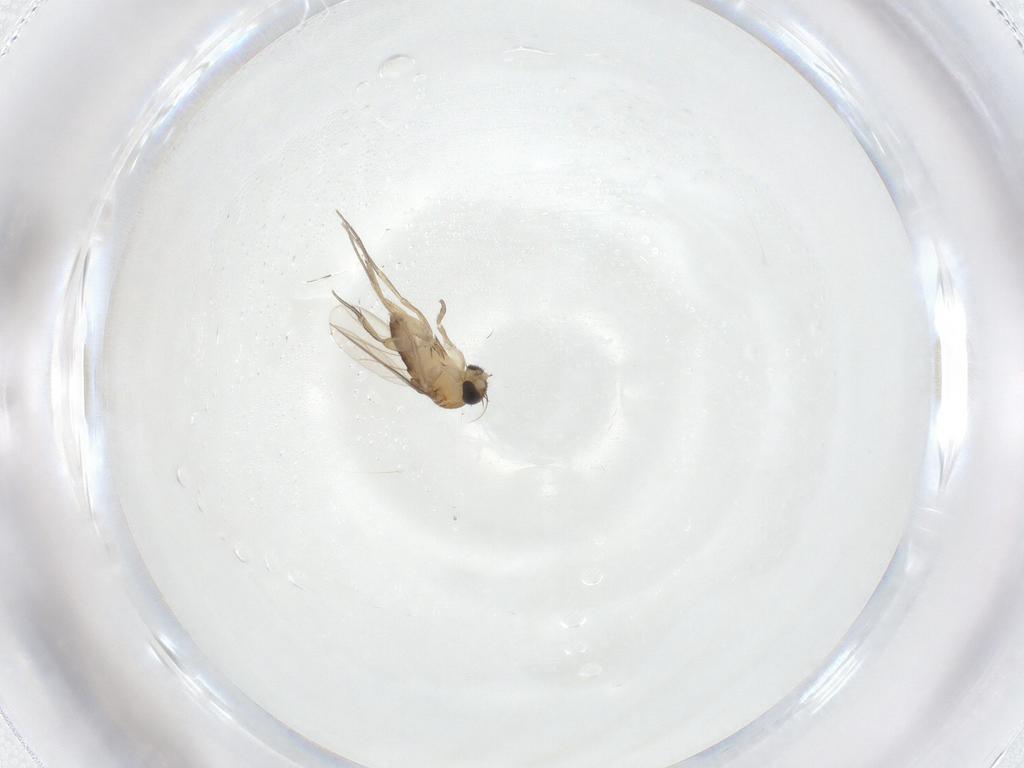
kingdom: Animalia
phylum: Arthropoda
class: Insecta
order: Diptera
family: Phoridae
